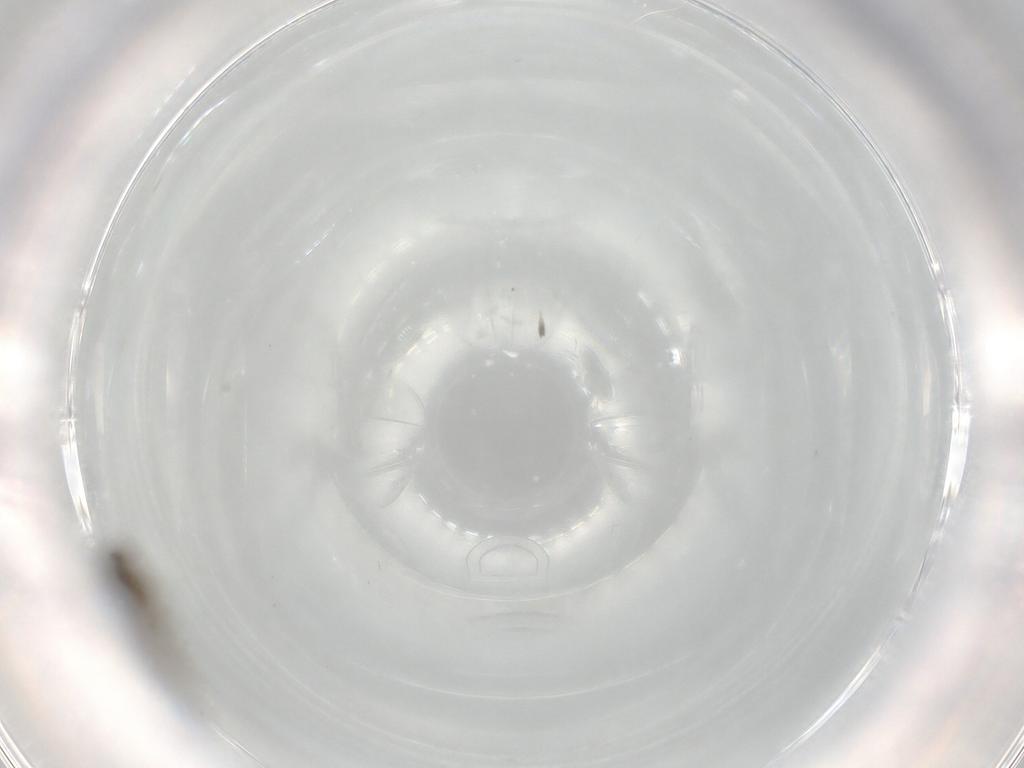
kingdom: Animalia
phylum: Arthropoda
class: Insecta
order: Diptera
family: Chironomidae
